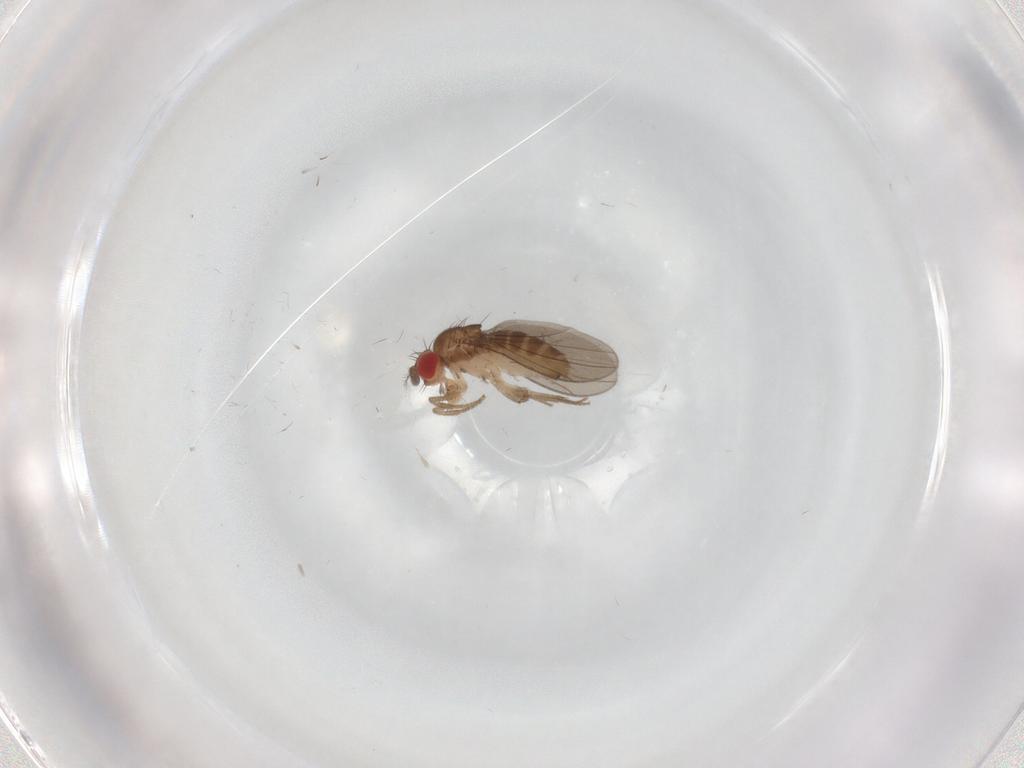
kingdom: Animalia
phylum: Arthropoda
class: Insecta
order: Diptera
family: Drosophilidae
